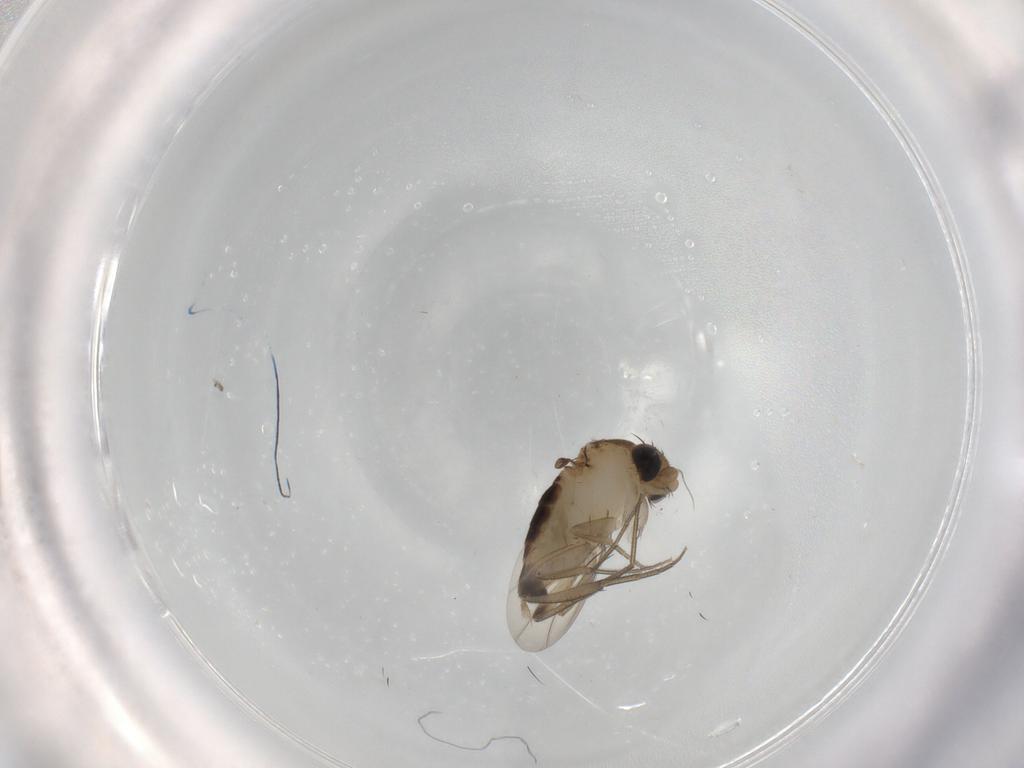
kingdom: Animalia
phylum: Arthropoda
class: Insecta
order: Diptera
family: Phoridae
